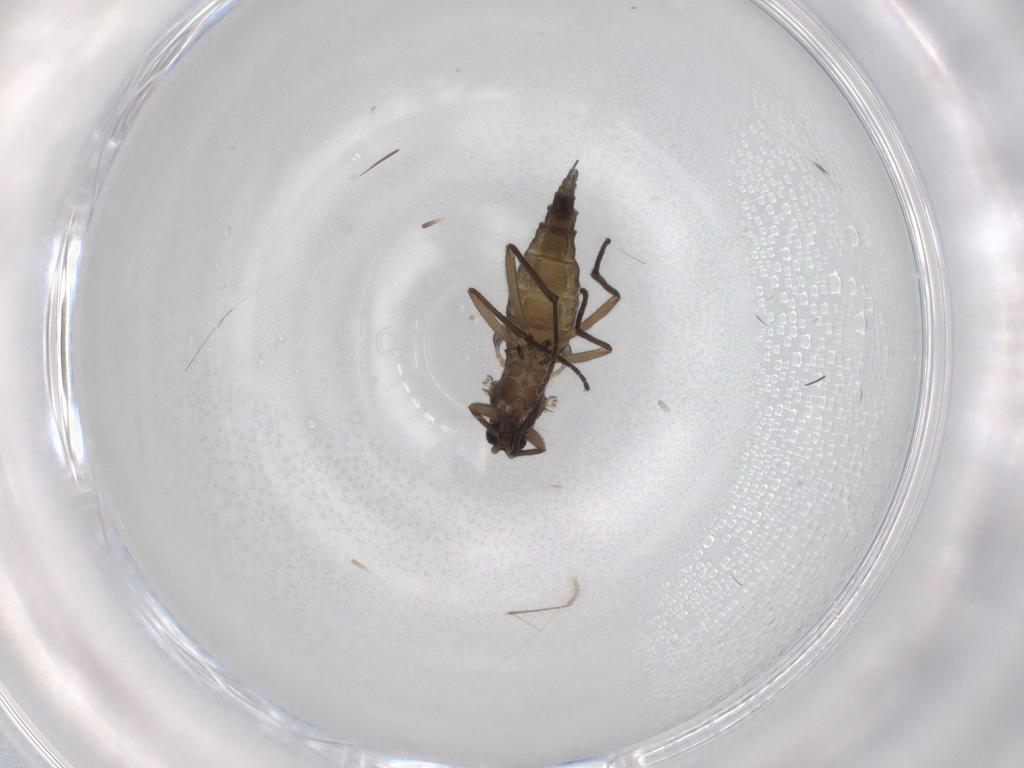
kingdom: Animalia
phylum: Arthropoda
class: Insecta
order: Diptera
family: Sciaridae
